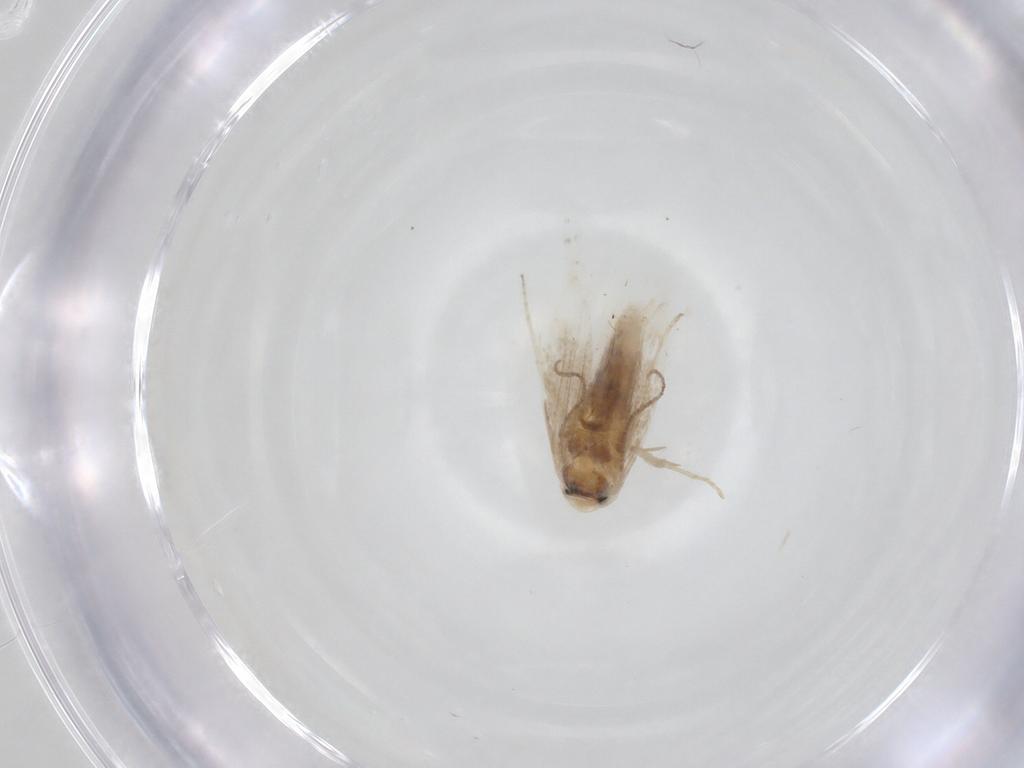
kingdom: Animalia
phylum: Arthropoda
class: Insecta
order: Lepidoptera
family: Lyonetiidae
